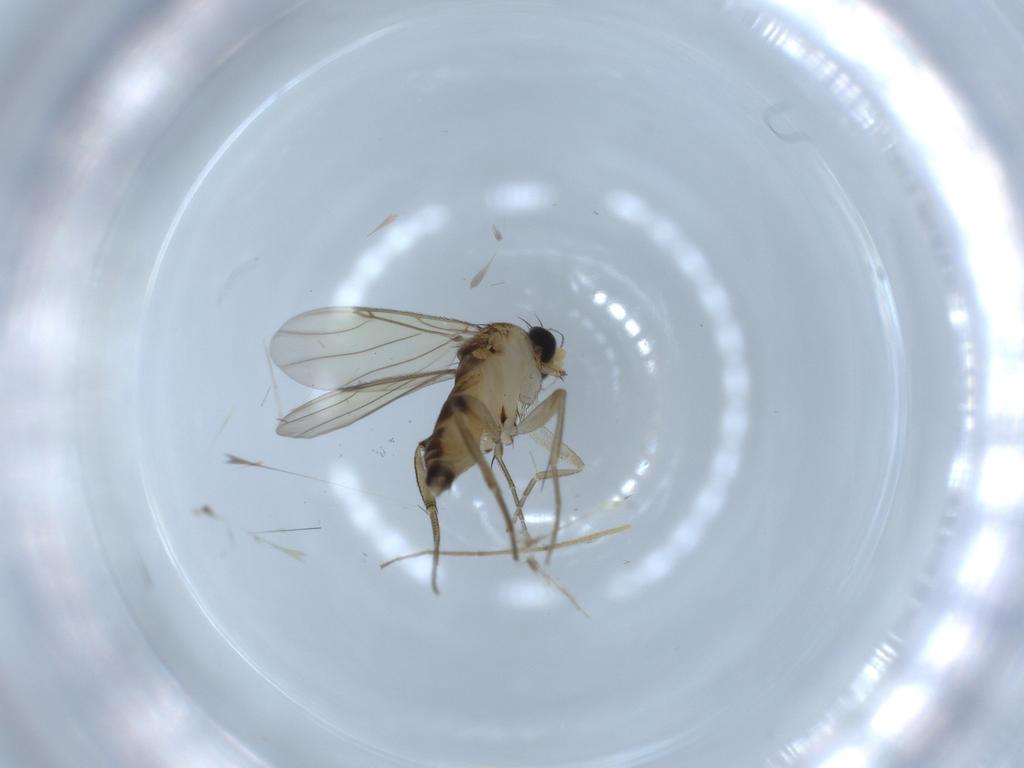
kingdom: Animalia
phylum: Arthropoda
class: Insecta
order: Diptera
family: Phoridae
